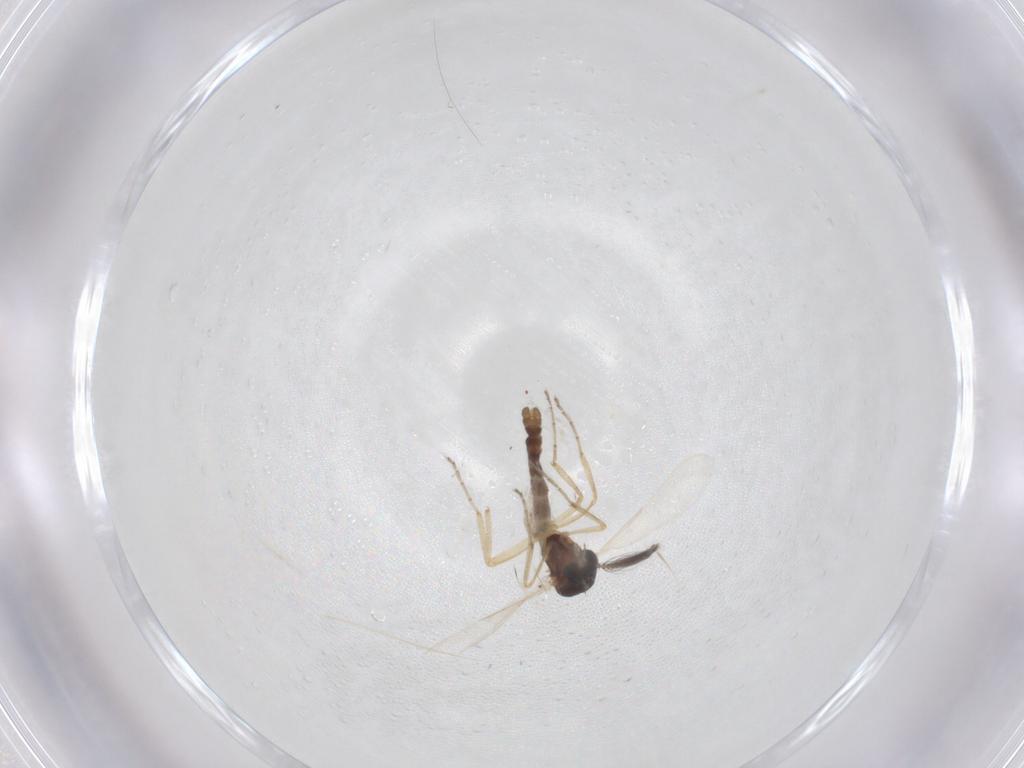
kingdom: Animalia
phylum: Arthropoda
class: Insecta
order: Diptera
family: Ceratopogonidae
